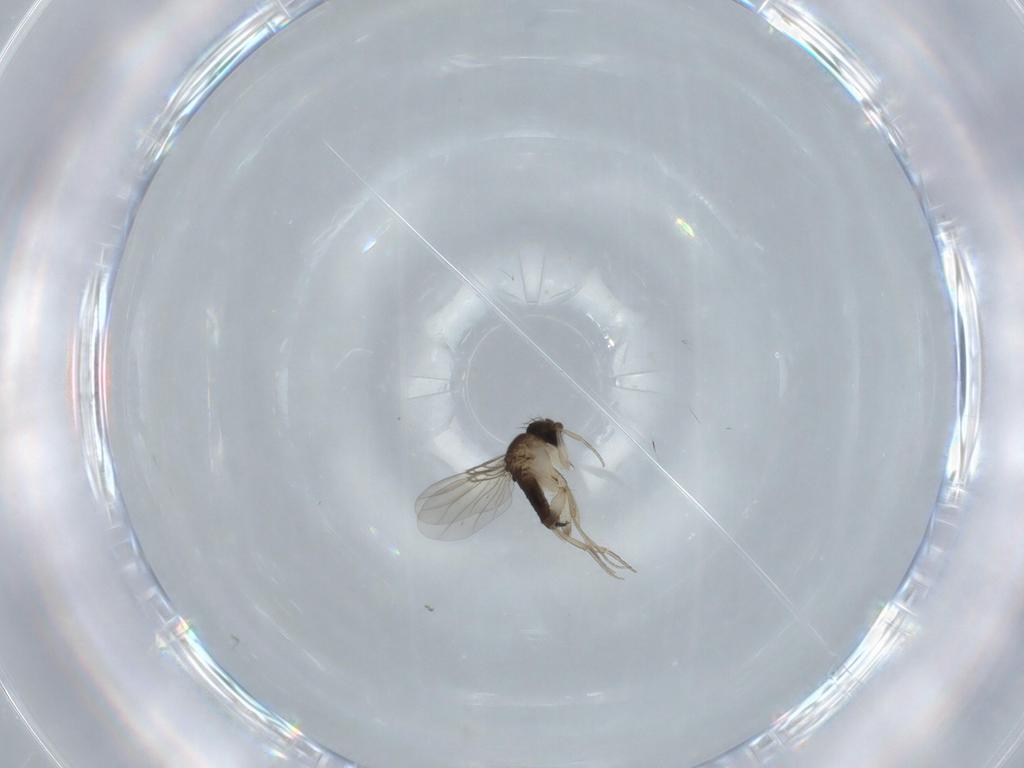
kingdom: Animalia
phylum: Arthropoda
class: Insecta
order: Diptera
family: Phoridae
